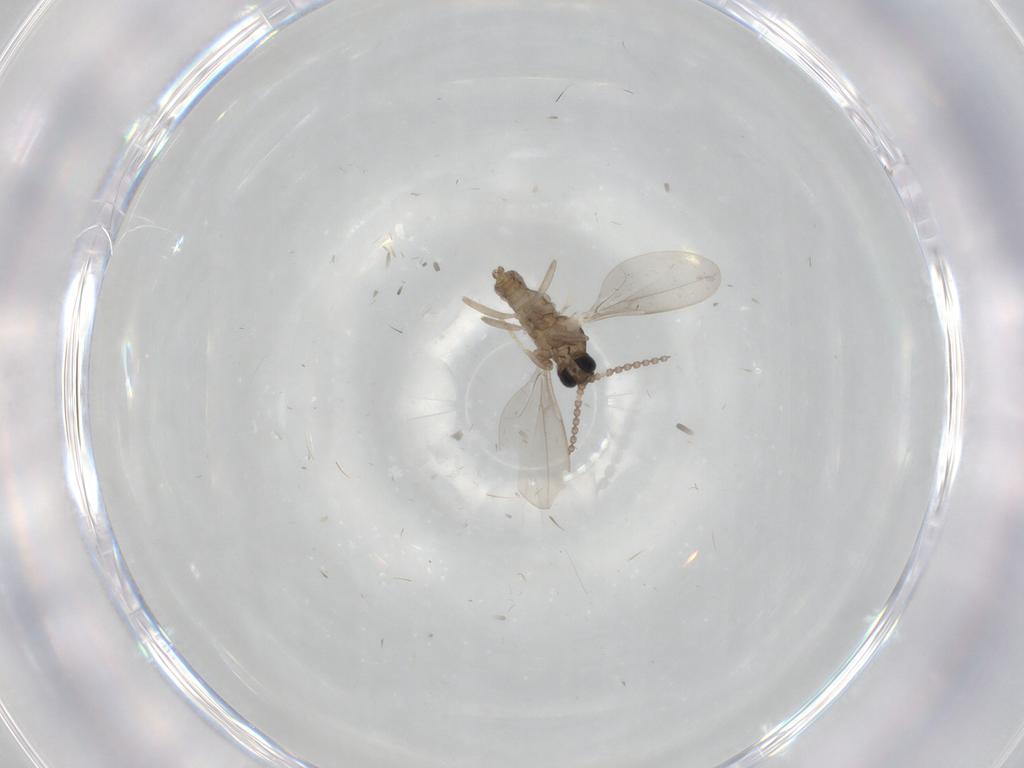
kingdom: Animalia
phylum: Arthropoda
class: Insecta
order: Diptera
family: Cecidomyiidae
